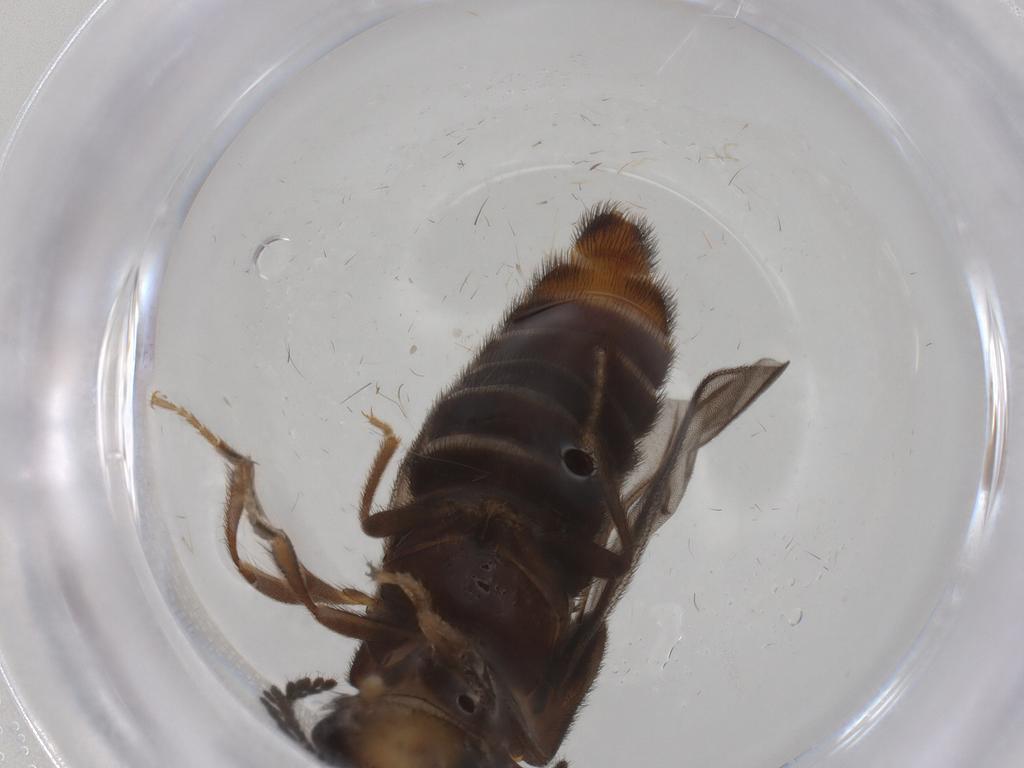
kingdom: Animalia
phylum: Arthropoda
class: Insecta
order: Coleoptera
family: Phengodidae
